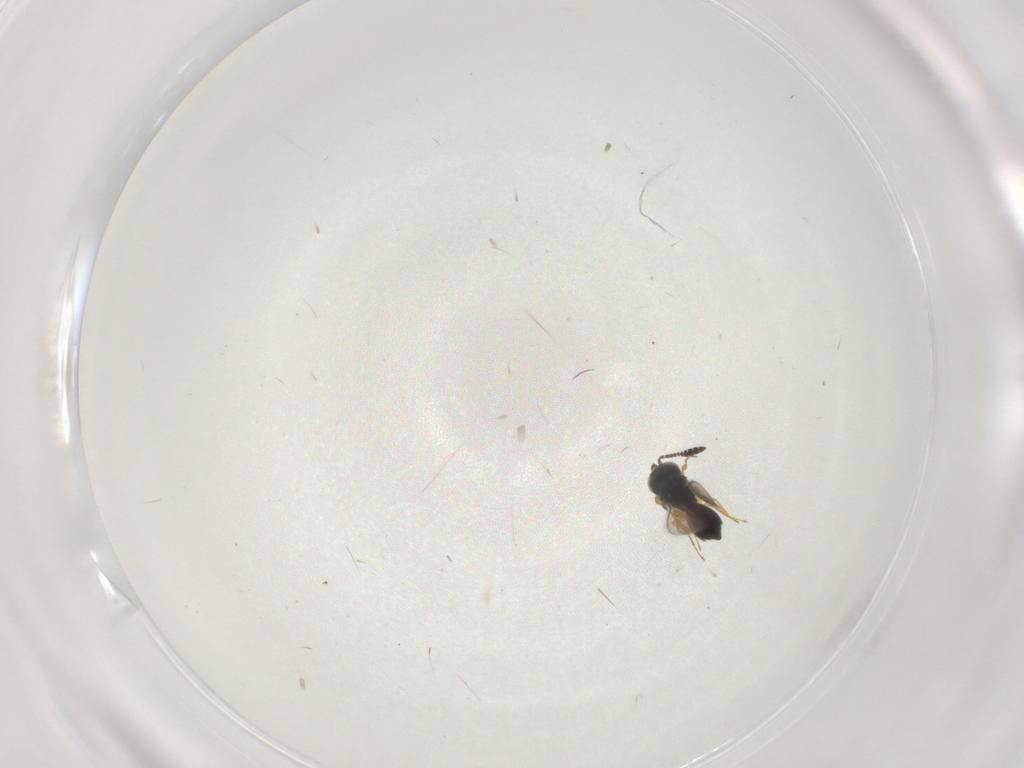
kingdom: Animalia
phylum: Arthropoda
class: Insecta
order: Hymenoptera
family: Scelionidae
